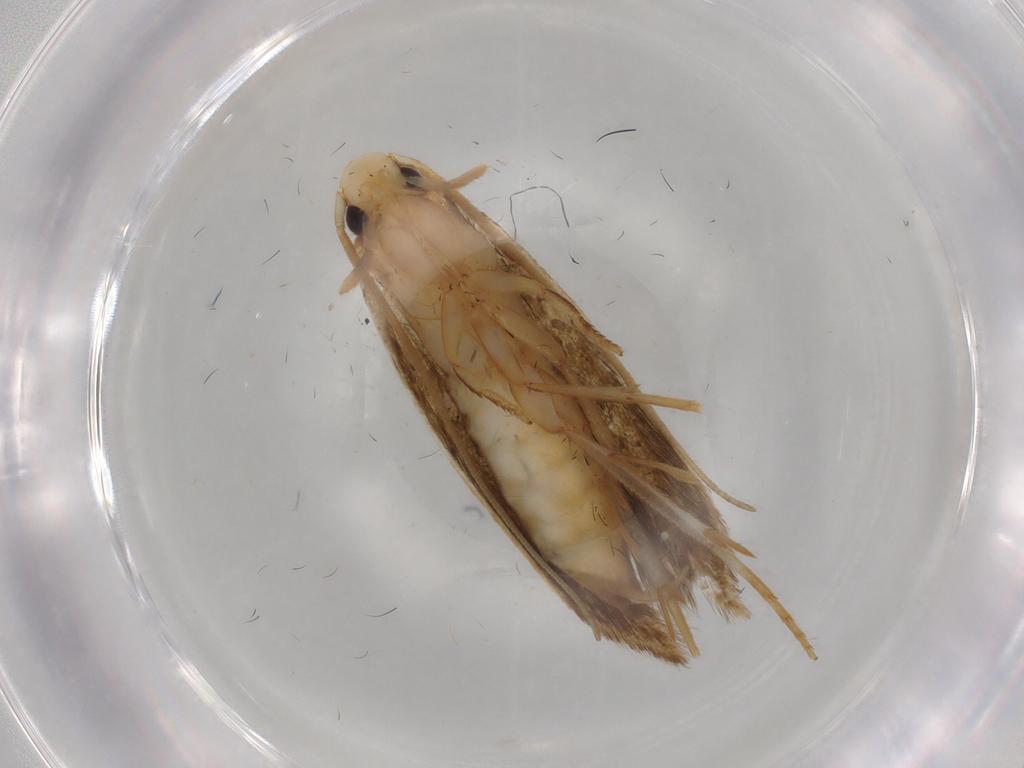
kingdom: Animalia
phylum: Arthropoda
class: Insecta
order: Lepidoptera
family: Tineidae
